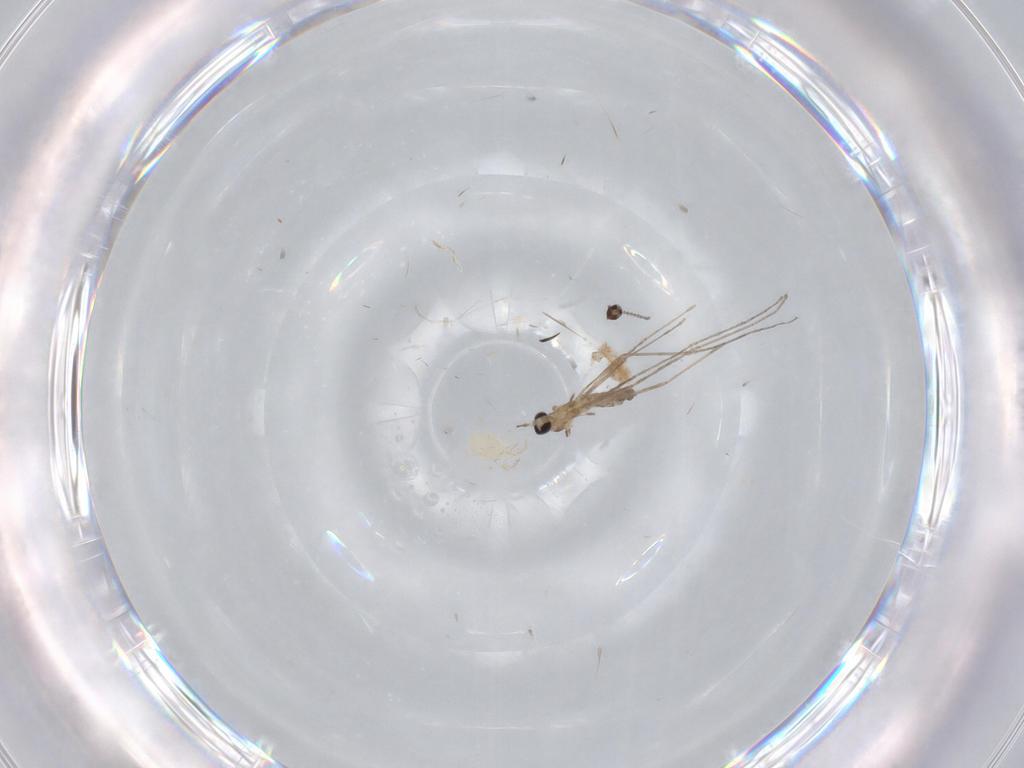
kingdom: Animalia
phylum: Arthropoda
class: Insecta
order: Diptera
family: Cecidomyiidae
